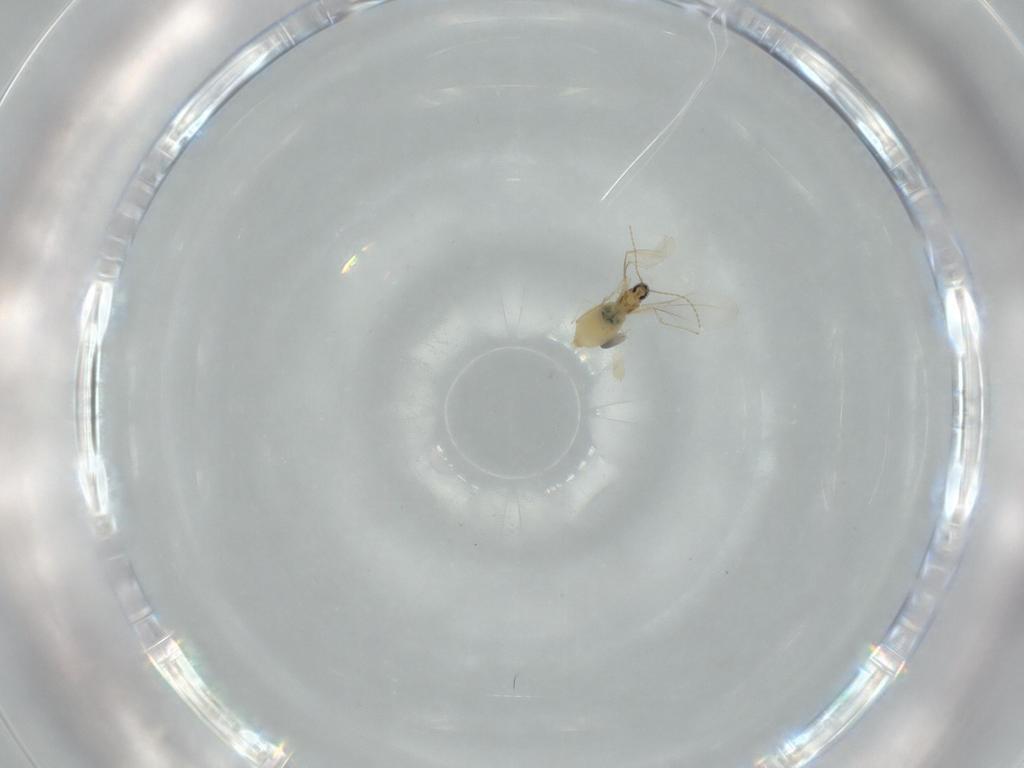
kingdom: Animalia
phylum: Arthropoda
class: Insecta
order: Diptera
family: Cecidomyiidae
